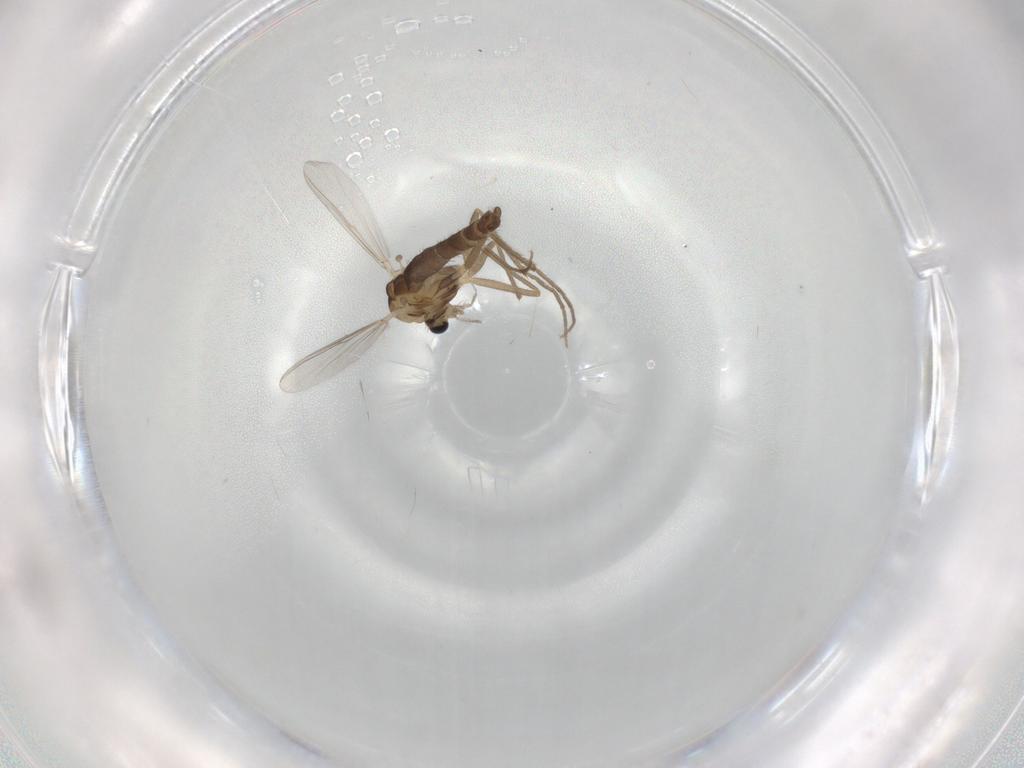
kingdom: Animalia
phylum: Arthropoda
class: Insecta
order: Diptera
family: Chironomidae
